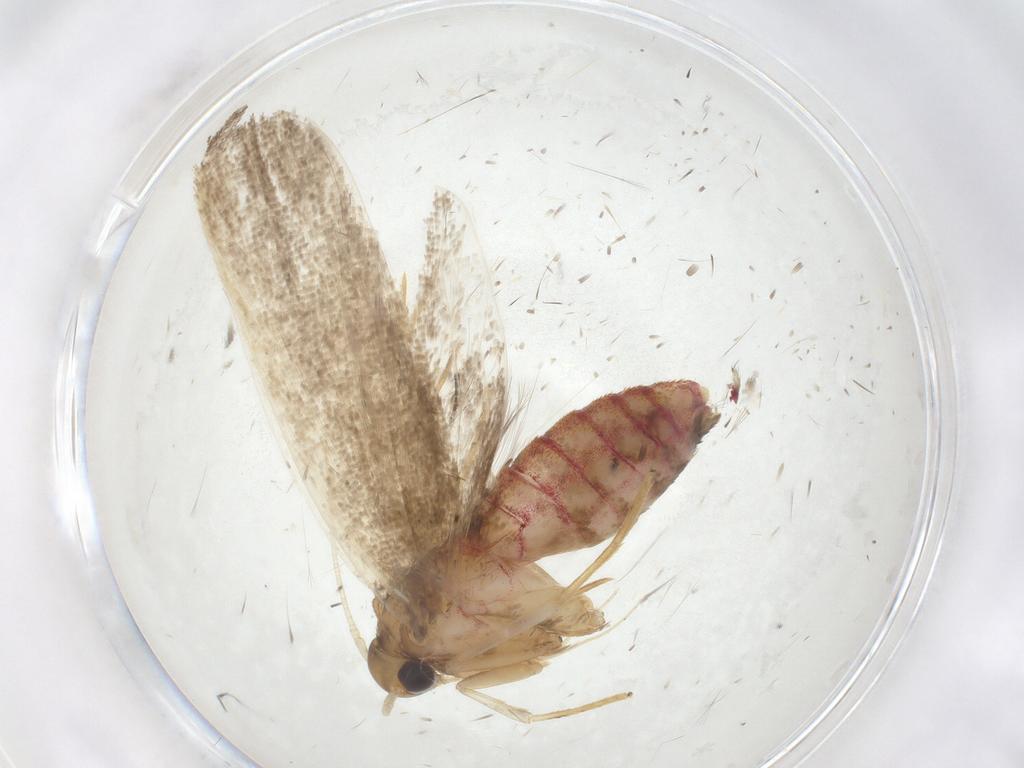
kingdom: Animalia
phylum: Arthropoda
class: Insecta
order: Lepidoptera
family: Lecithoceridae
